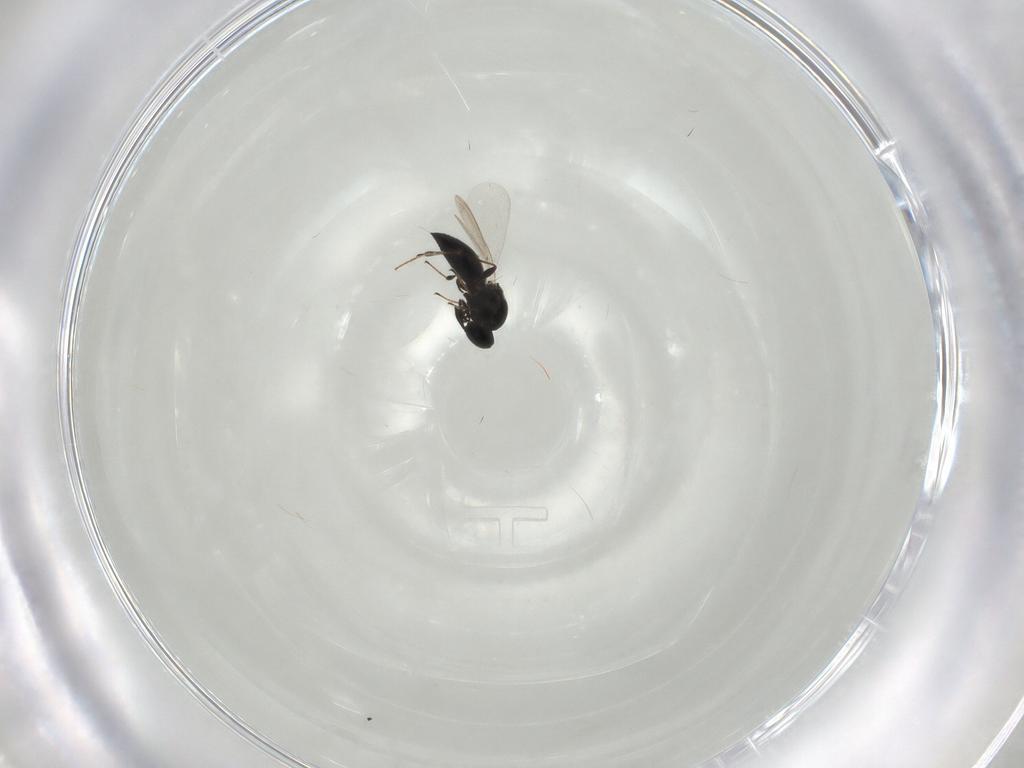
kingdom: Animalia
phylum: Arthropoda
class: Insecta
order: Hymenoptera
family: Platygastridae
